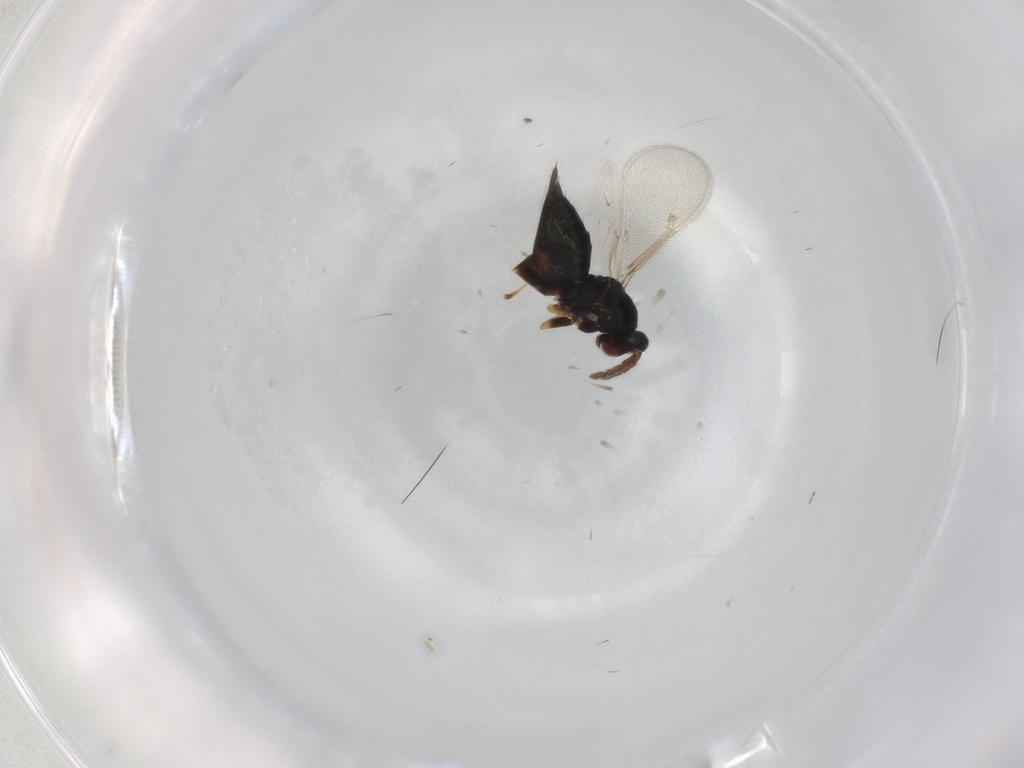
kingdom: Animalia
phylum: Arthropoda
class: Insecta
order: Hymenoptera
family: Eulophidae
